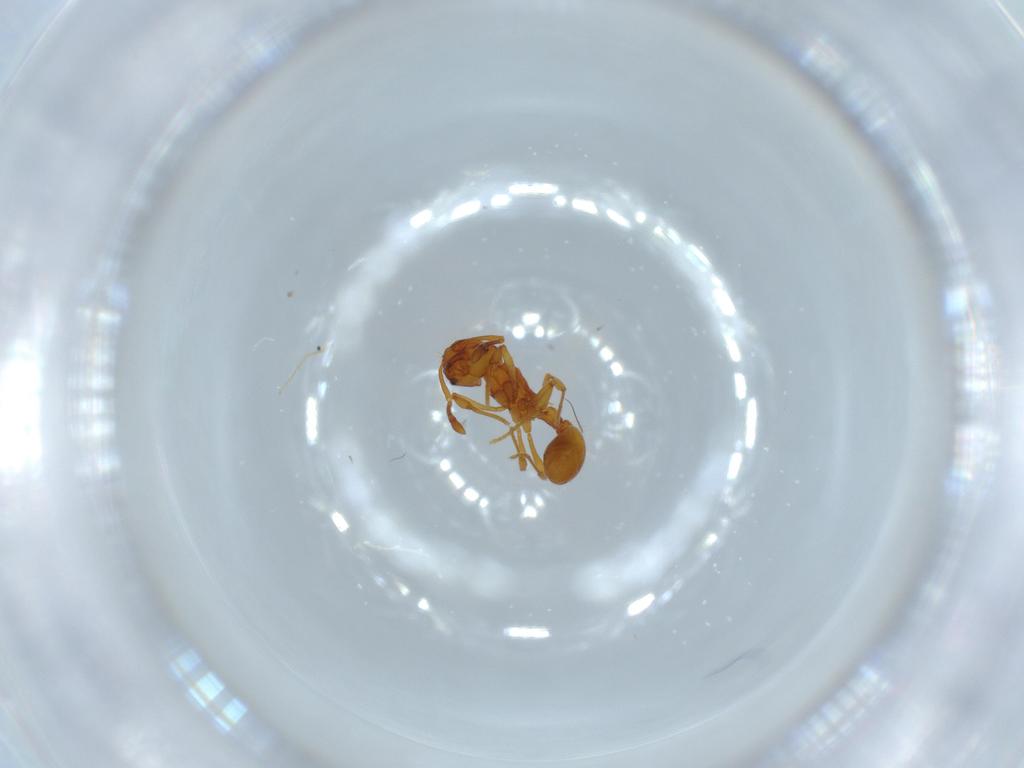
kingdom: Animalia
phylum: Arthropoda
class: Insecta
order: Hymenoptera
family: Formicidae
